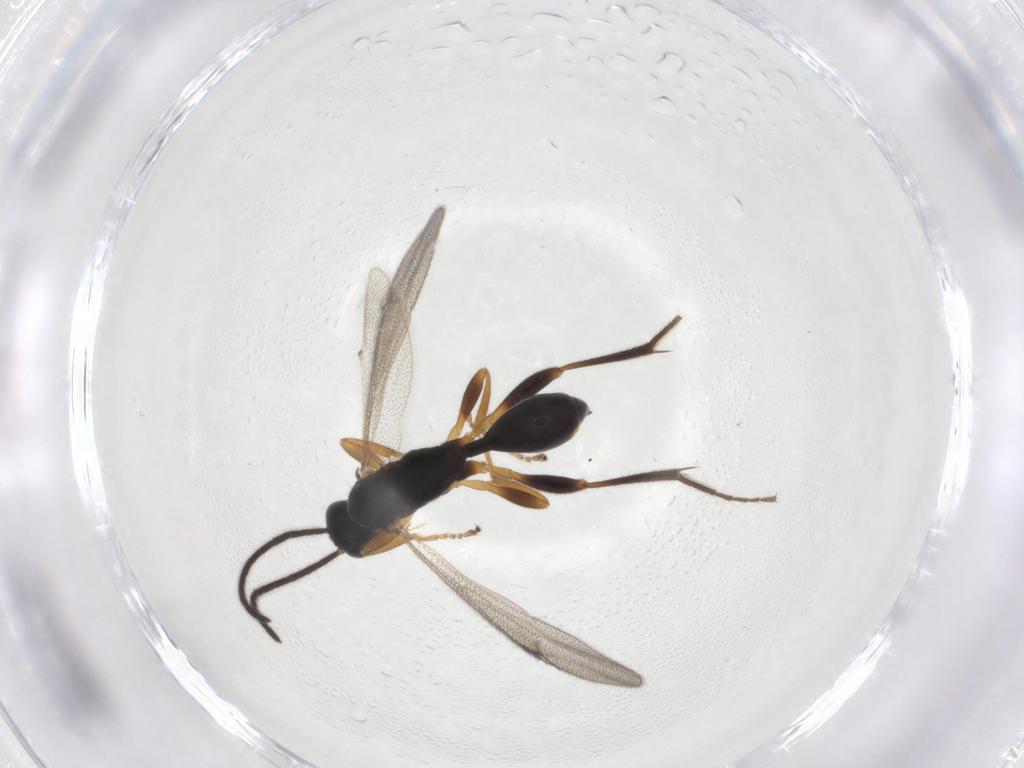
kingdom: Animalia
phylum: Arthropoda
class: Insecta
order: Hymenoptera
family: Proctotrupidae
